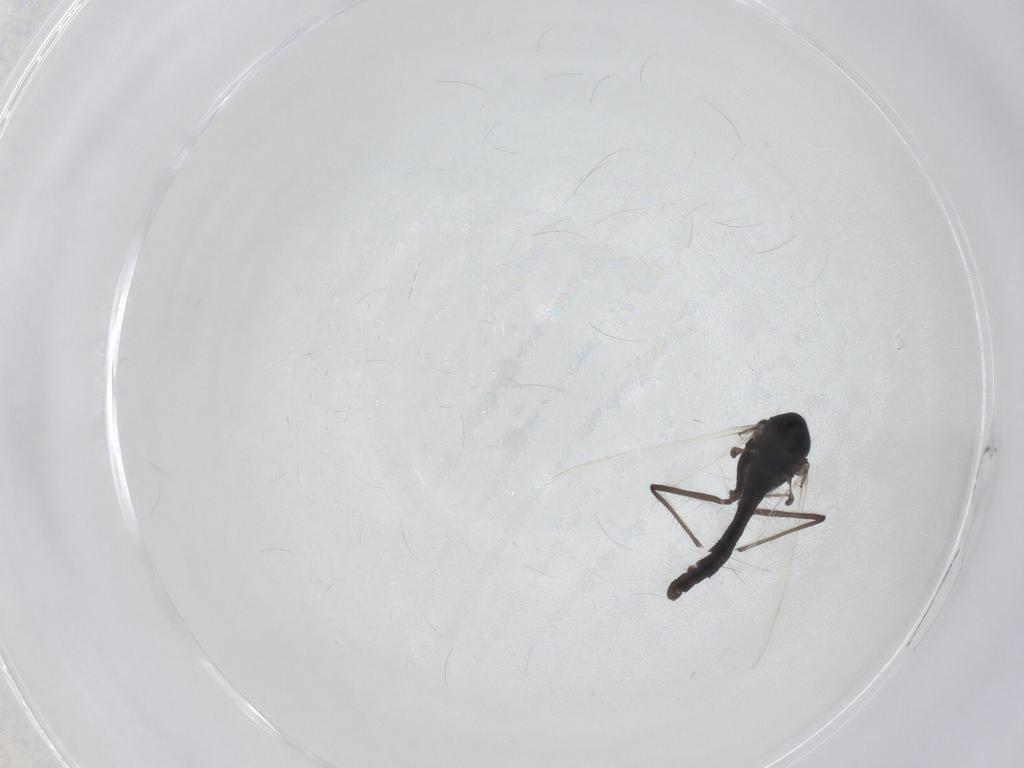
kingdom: Animalia
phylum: Arthropoda
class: Insecta
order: Diptera
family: Chironomidae
